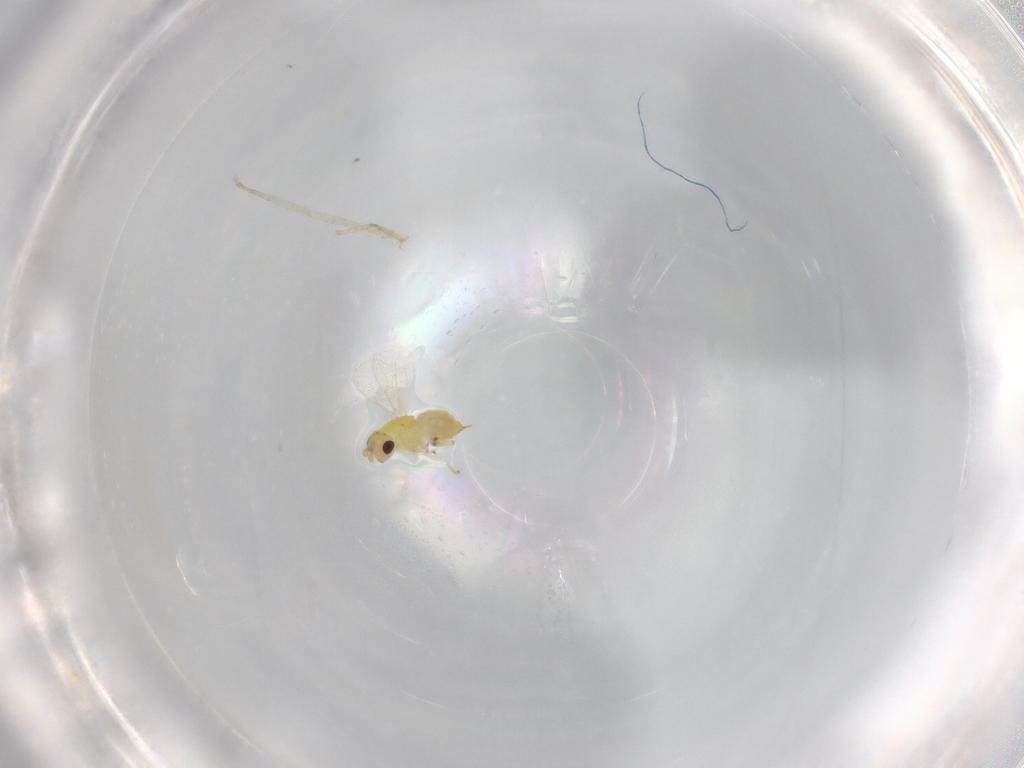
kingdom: Animalia
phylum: Arthropoda
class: Insecta
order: Hymenoptera
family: Eulophidae
